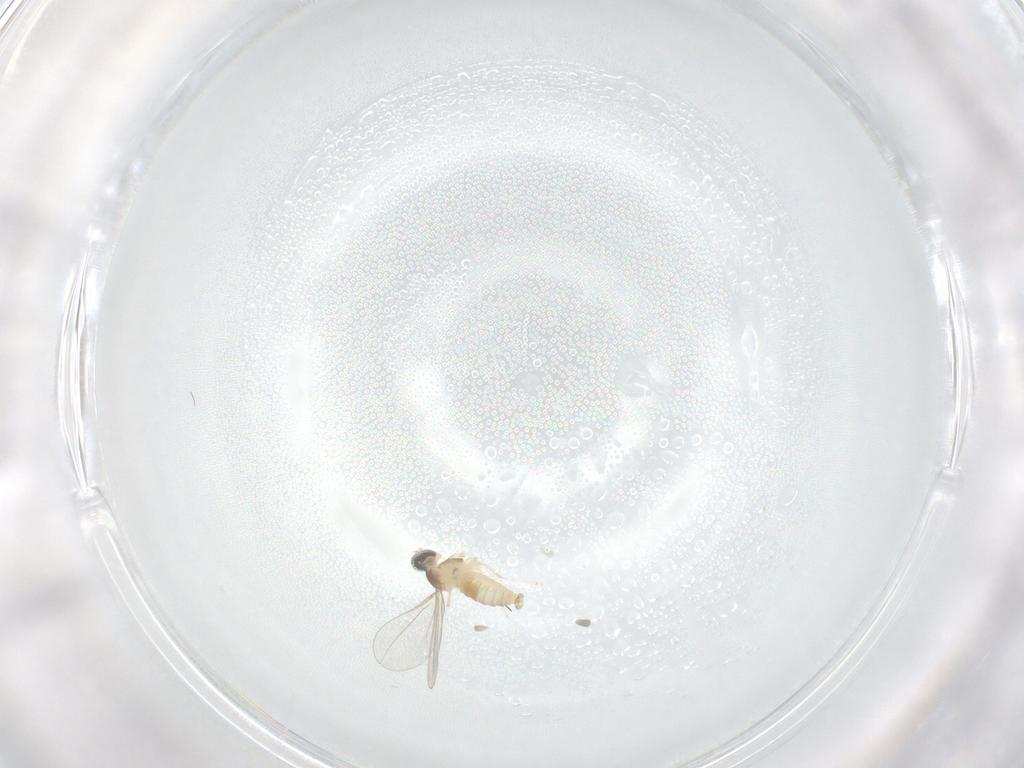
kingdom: Animalia
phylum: Arthropoda
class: Insecta
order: Diptera
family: Cecidomyiidae
